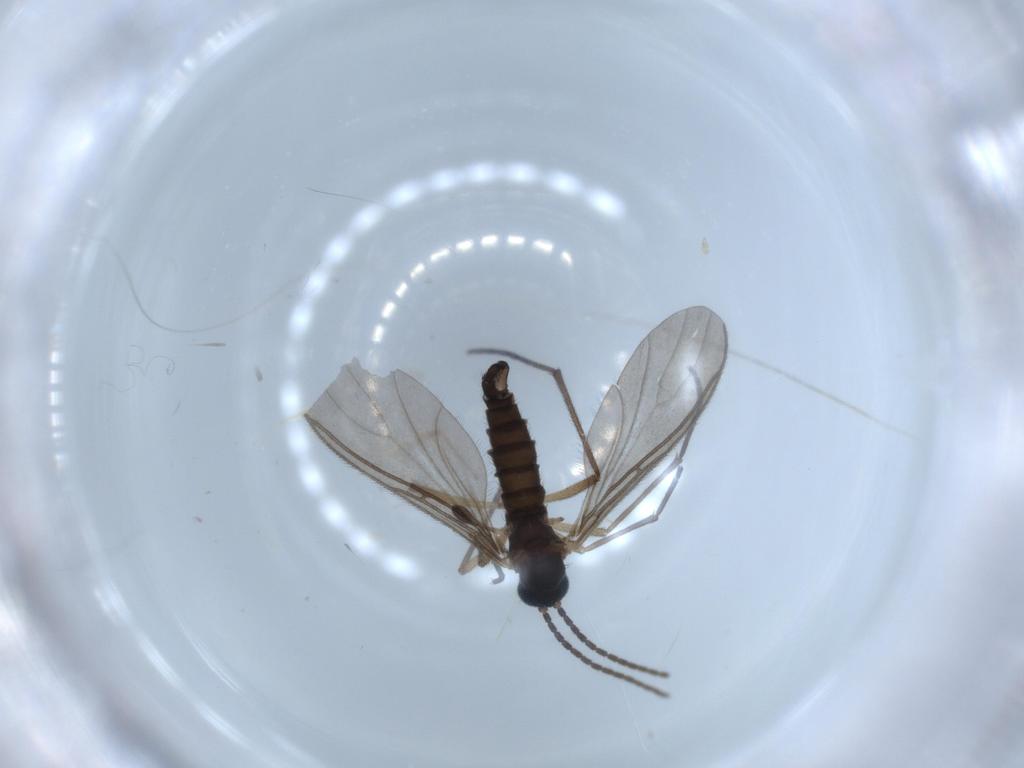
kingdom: Animalia
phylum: Arthropoda
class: Insecta
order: Diptera
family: Sciaridae
